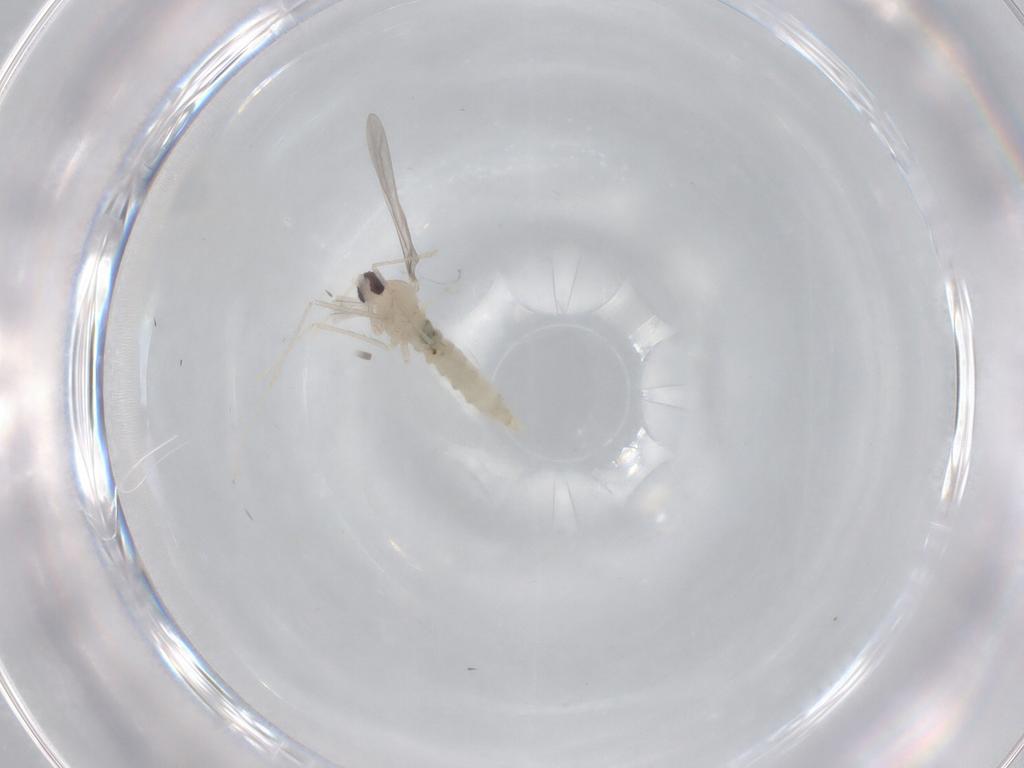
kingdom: Animalia
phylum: Arthropoda
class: Insecta
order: Diptera
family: Cecidomyiidae
